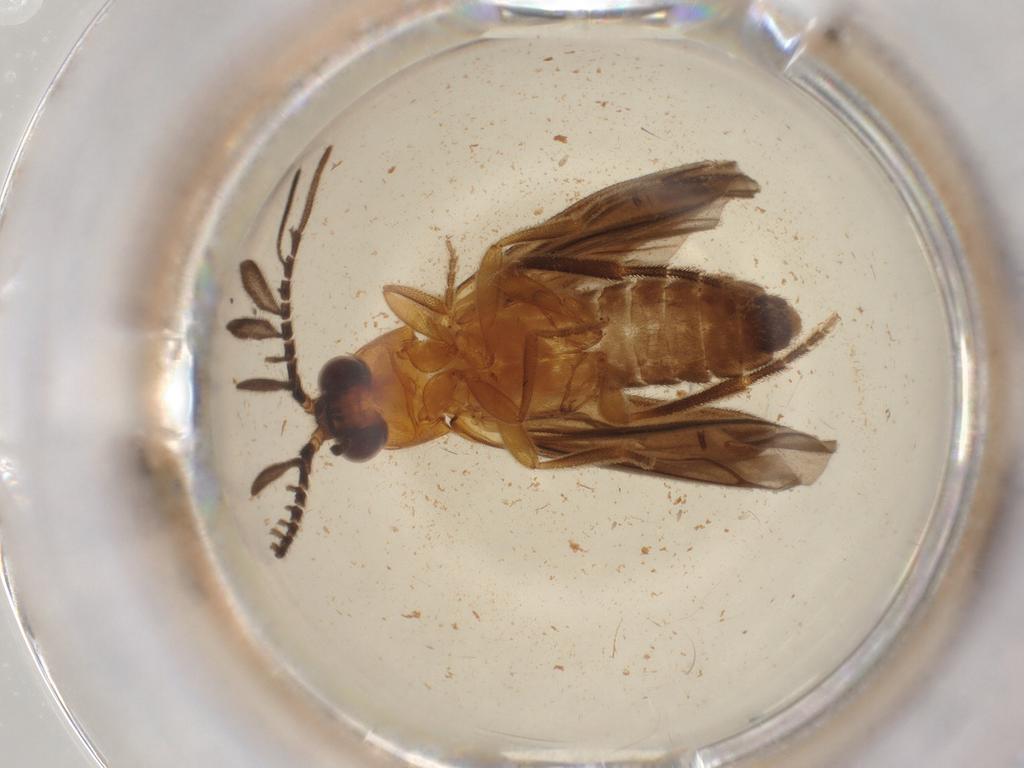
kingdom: Animalia
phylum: Arthropoda
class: Insecta
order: Coleoptera
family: Lampyridae
